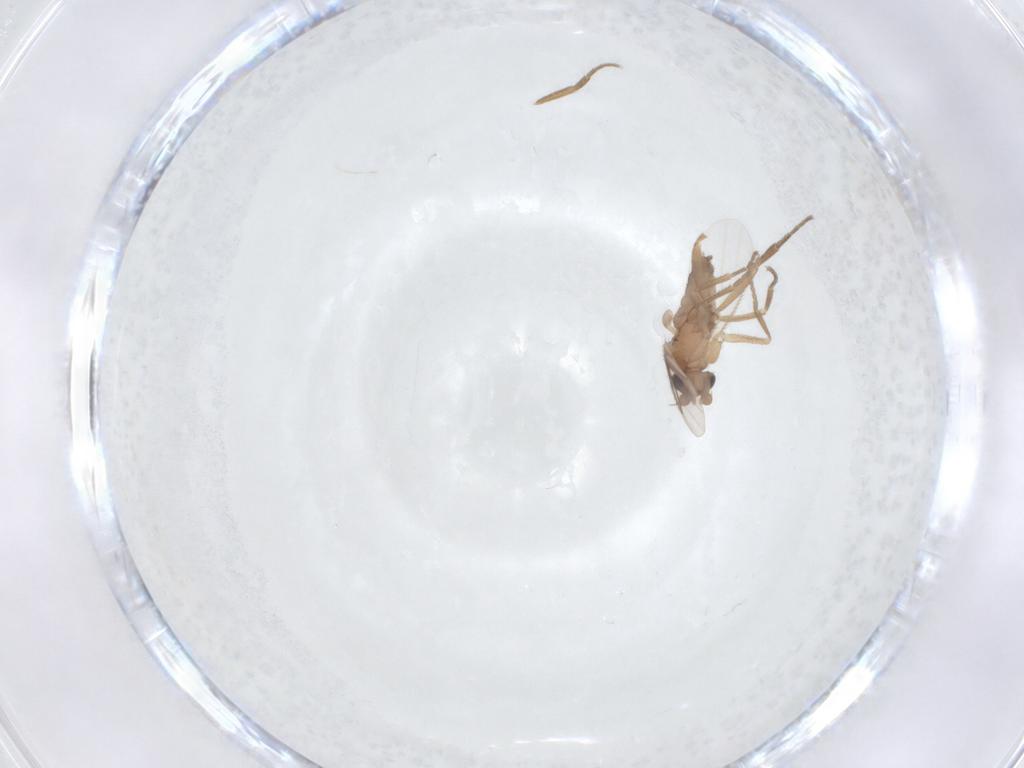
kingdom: Animalia
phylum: Arthropoda
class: Insecta
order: Diptera
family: Phoridae
